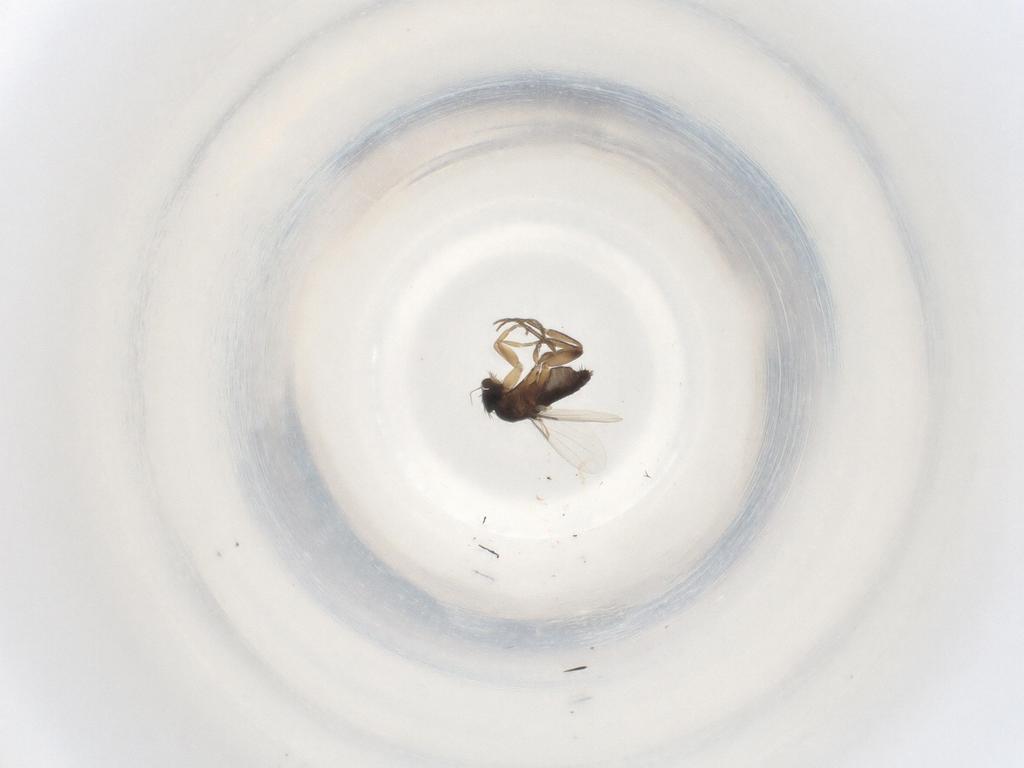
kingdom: Animalia
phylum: Arthropoda
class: Insecta
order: Diptera
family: Phoridae
